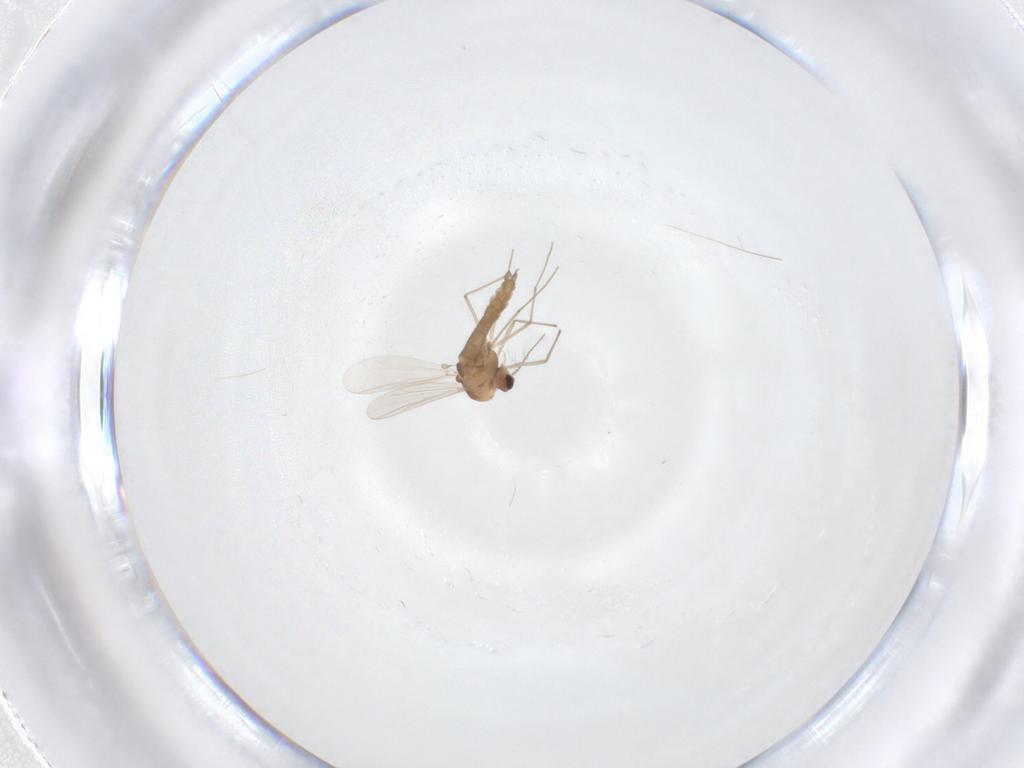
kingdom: Animalia
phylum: Arthropoda
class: Insecta
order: Diptera
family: Chironomidae
